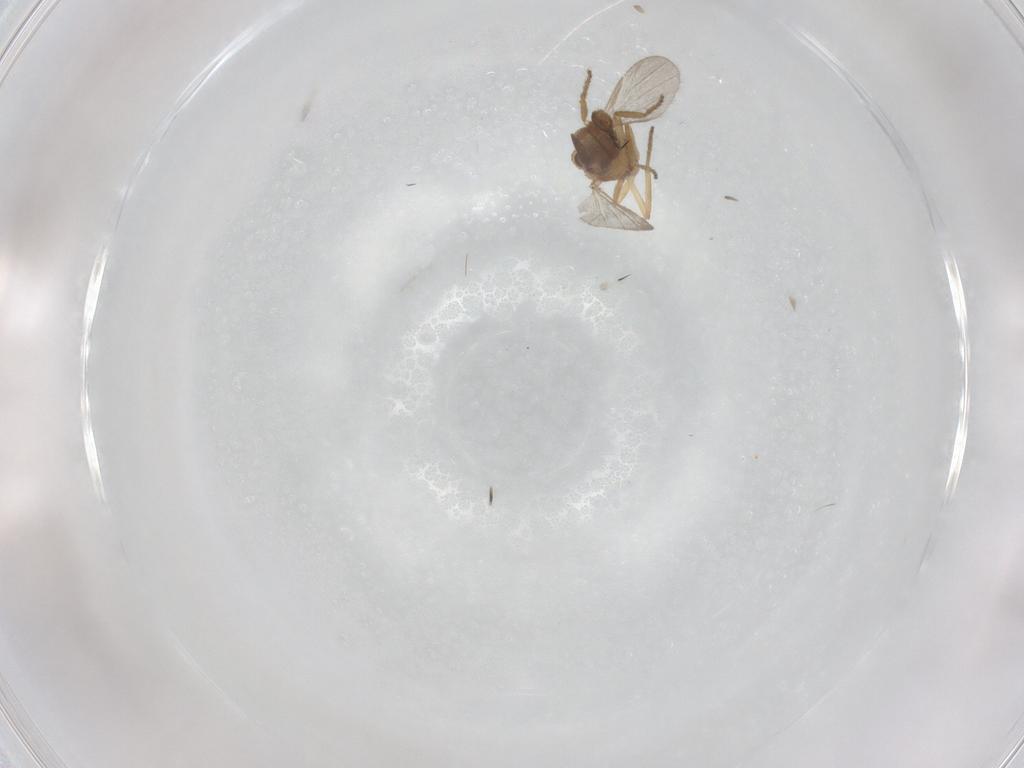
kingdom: Animalia
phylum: Arthropoda
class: Insecta
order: Diptera
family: Ceratopogonidae
